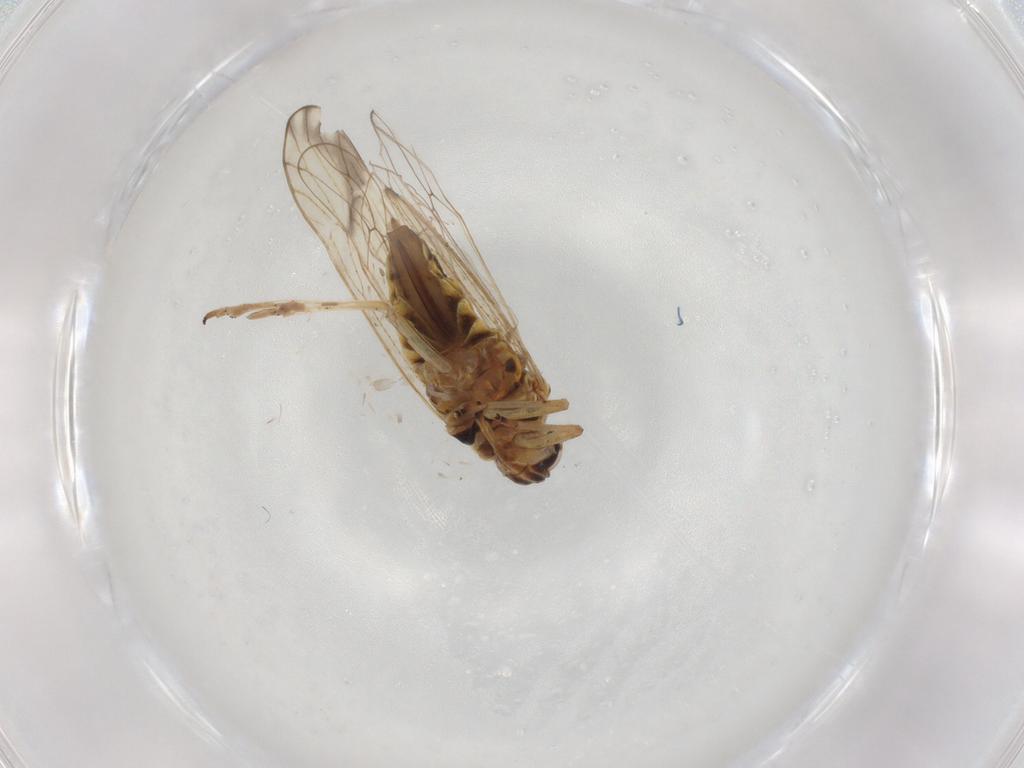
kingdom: Animalia
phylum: Arthropoda
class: Insecta
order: Hemiptera
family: Delphacidae
